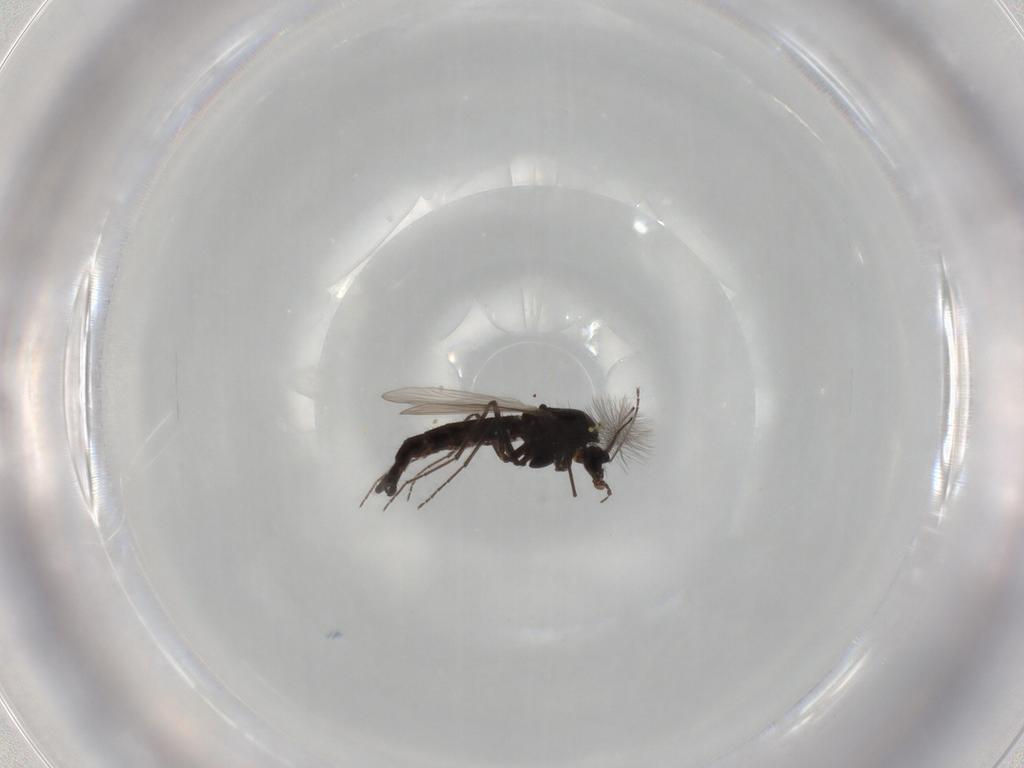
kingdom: Animalia
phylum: Arthropoda
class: Insecta
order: Diptera
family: Chironomidae
